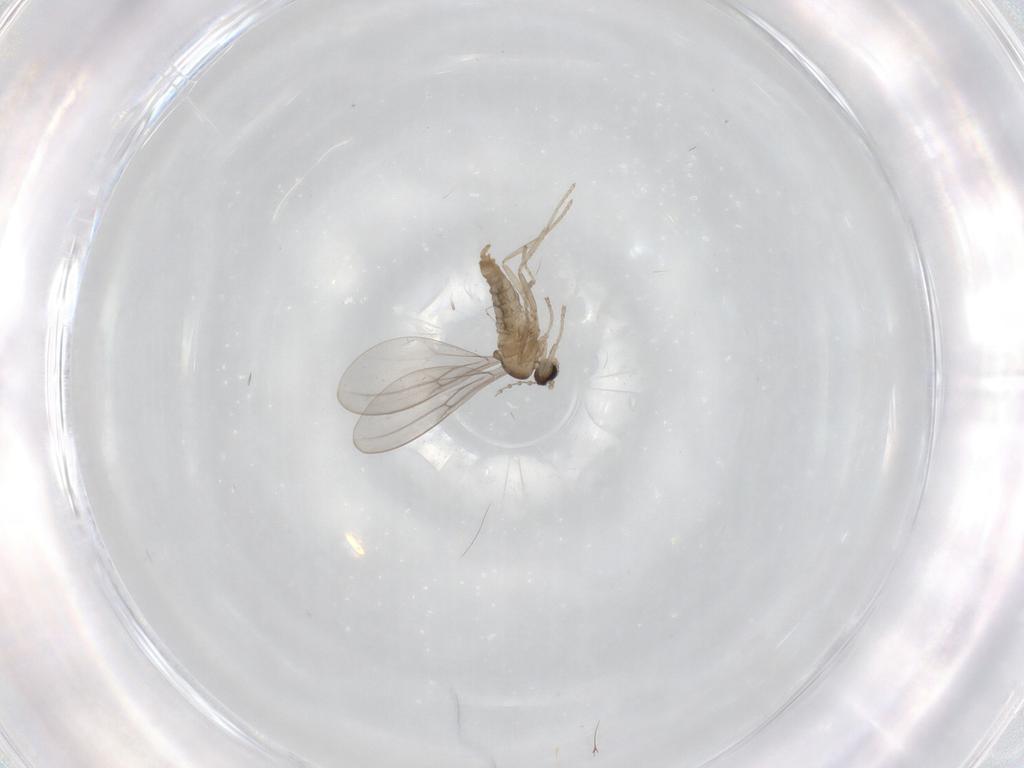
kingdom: Animalia
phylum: Arthropoda
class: Insecta
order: Diptera
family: Cecidomyiidae
